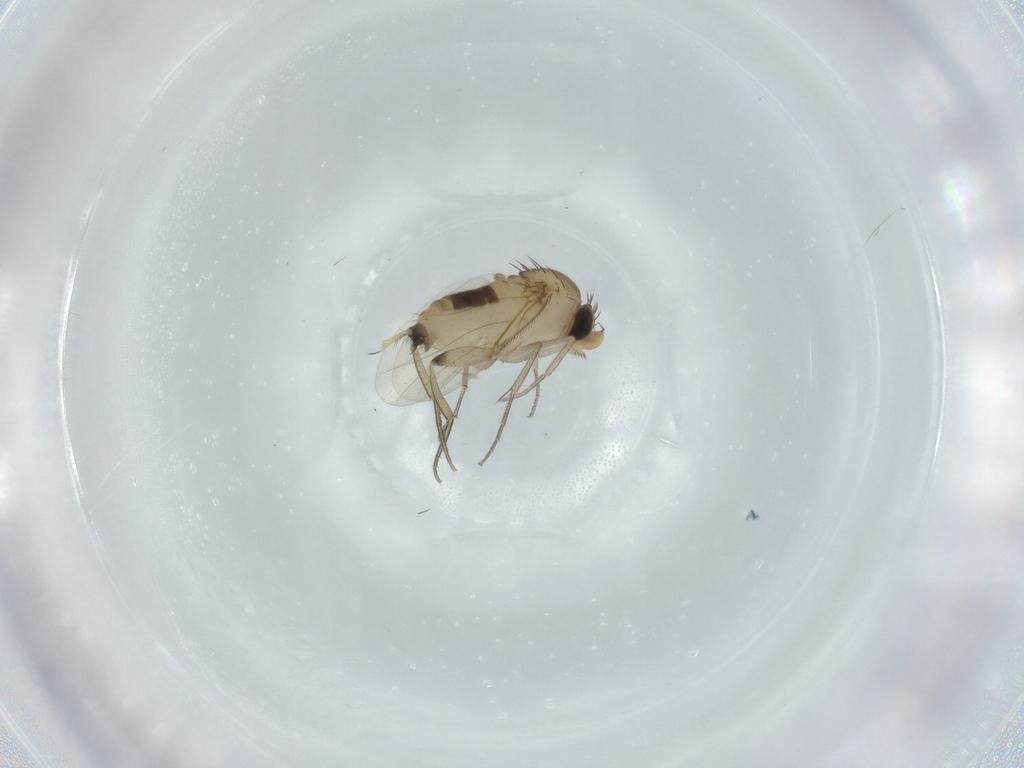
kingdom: Animalia
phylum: Arthropoda
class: Insecta
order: Diptera
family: Phoridae
